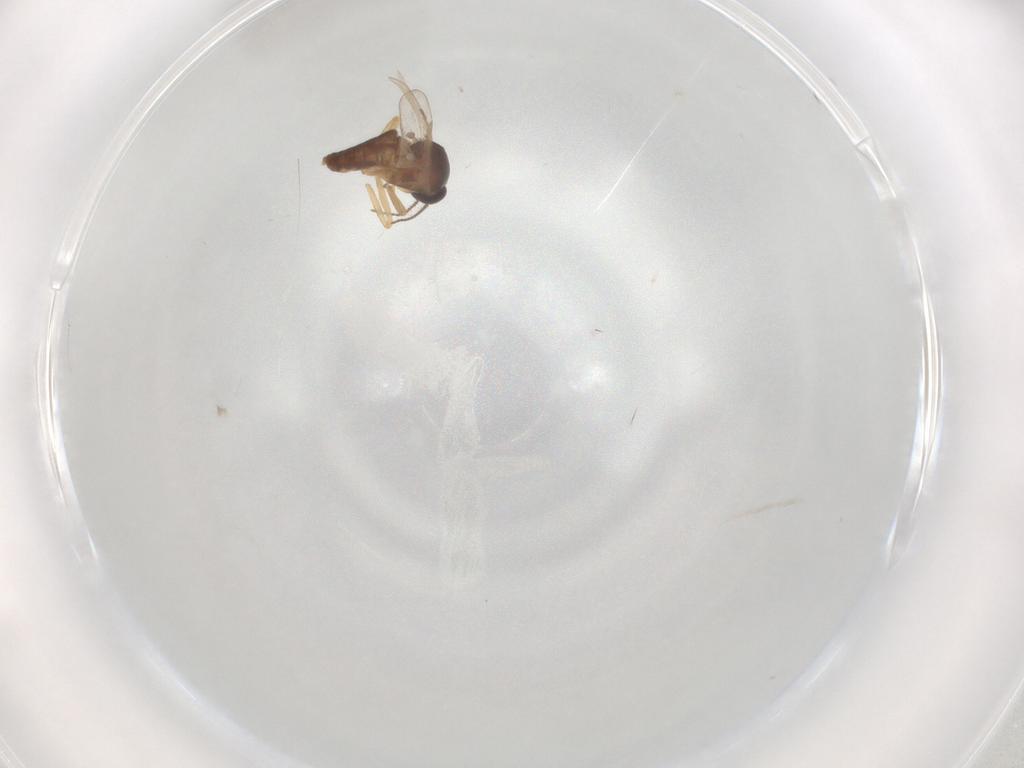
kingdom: Animalia
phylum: Arthropoda
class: Insecta
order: Diptera
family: Ceratopogonidae
